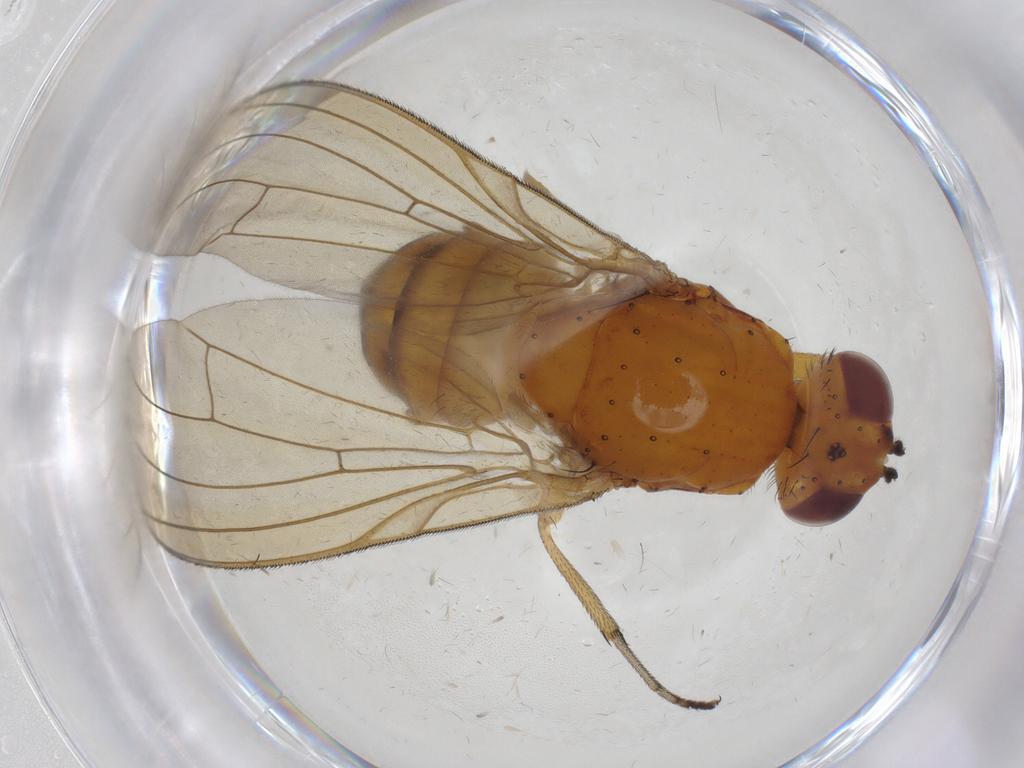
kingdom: Animalia
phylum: Arthropoda
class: Insecta
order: Diptera
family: Lauxaniidae
